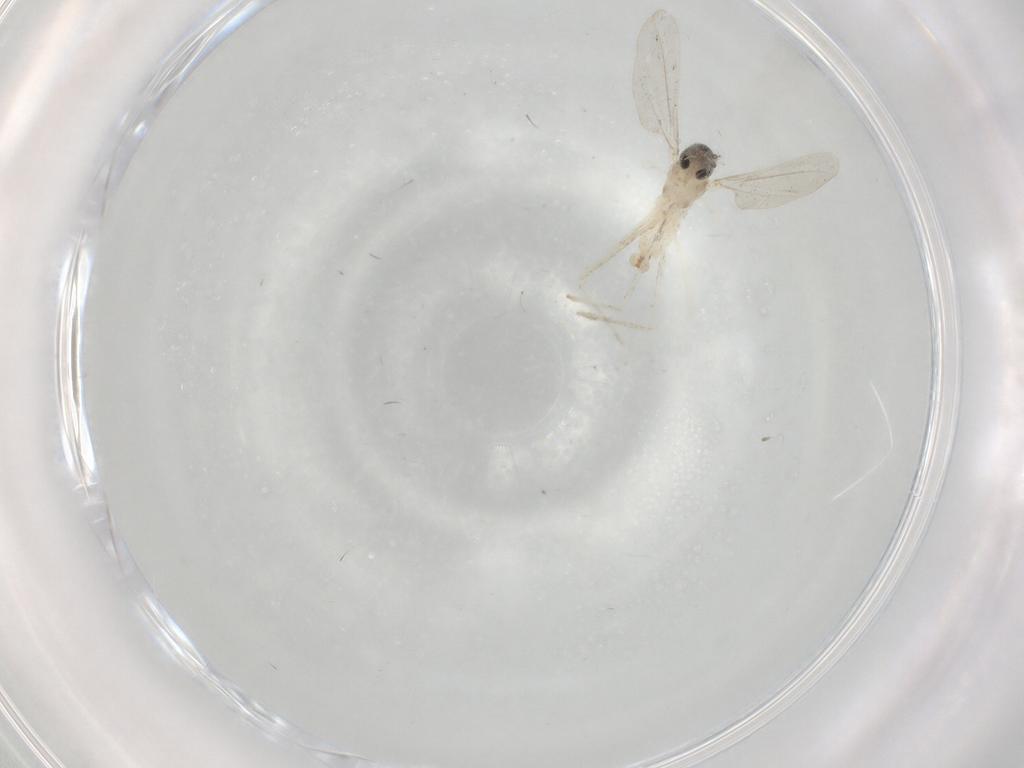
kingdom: Animalia
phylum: Arthropoda
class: Insecta
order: Diptera
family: Cecidomyiidae
